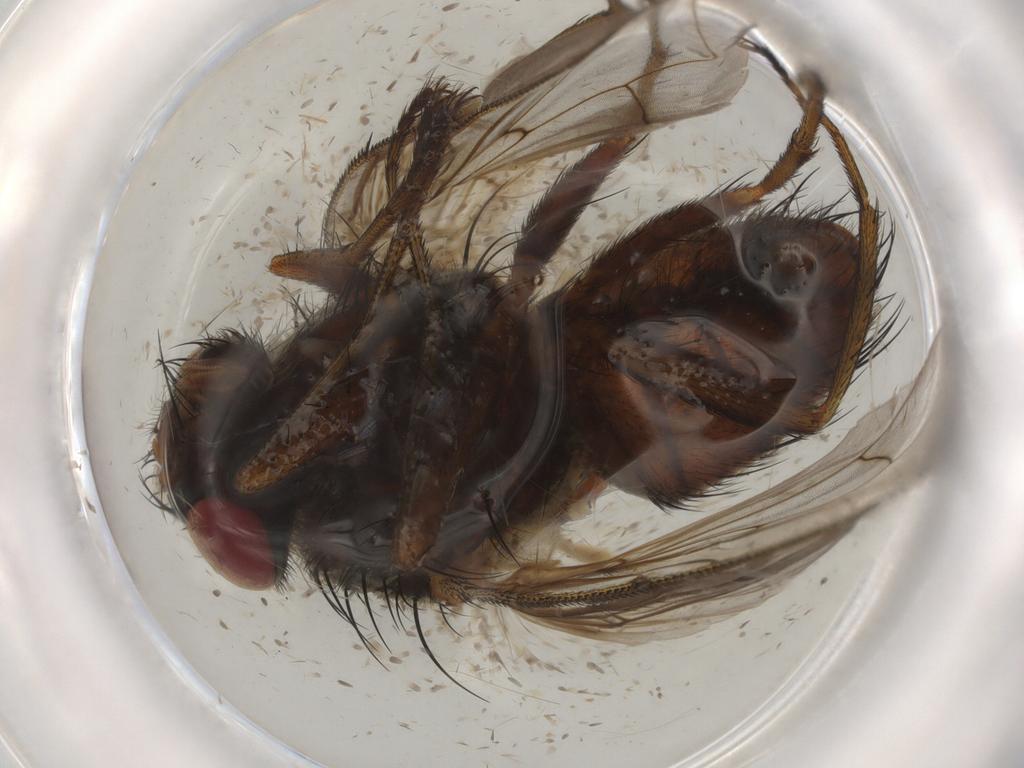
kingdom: Animalia
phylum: Arthropoda
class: Insecta
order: Diptera
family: Tachinidae
